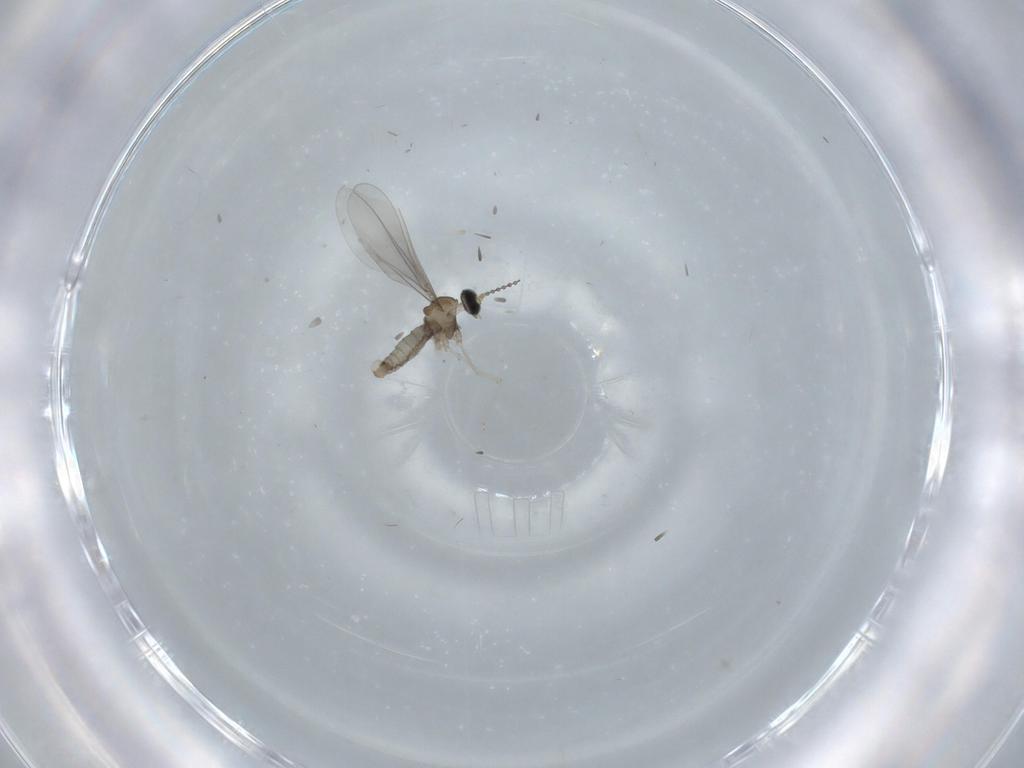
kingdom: Animalia
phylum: Arthropoda
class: Insecta
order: Diptera
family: Cecidomyiidae
